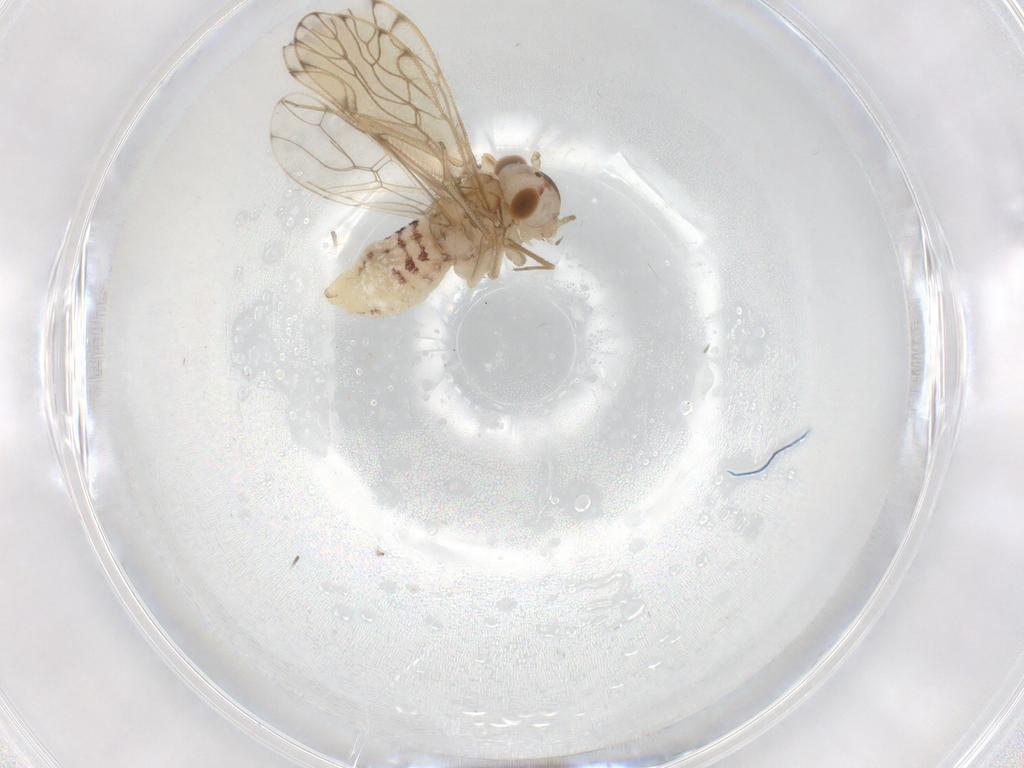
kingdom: Animalia
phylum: Arthropoda
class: Insecta
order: Psocodea
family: Epipsocidae
